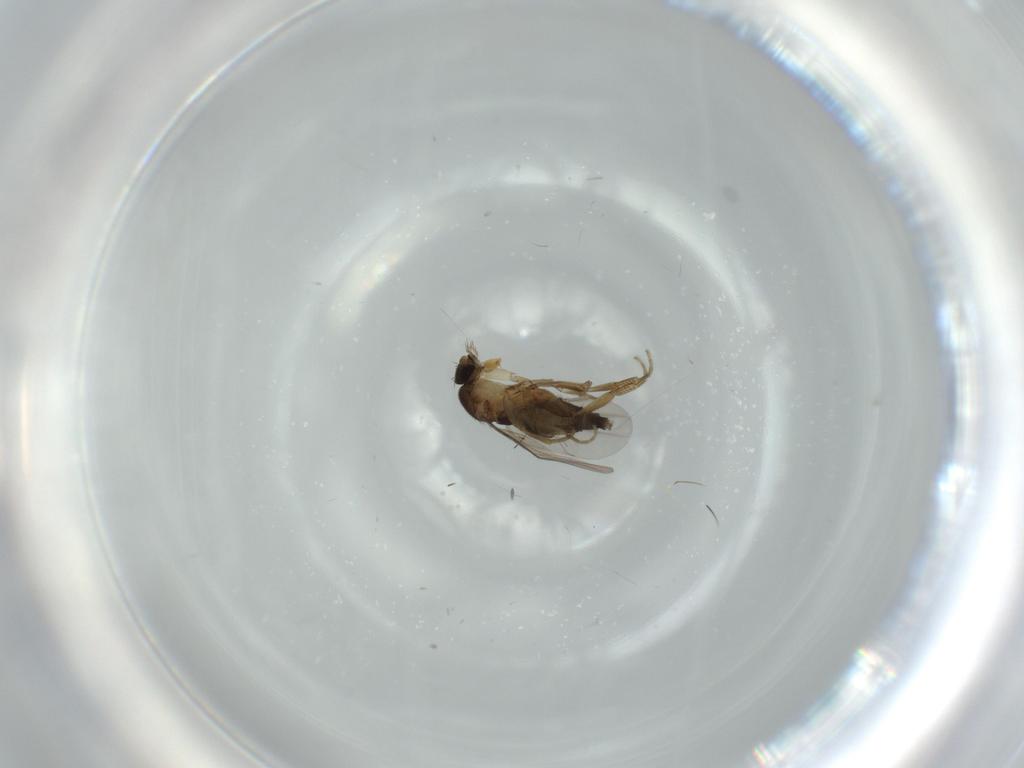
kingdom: Animalia
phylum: Arthropoda
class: Insecta
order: Diptera
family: Phoridae
